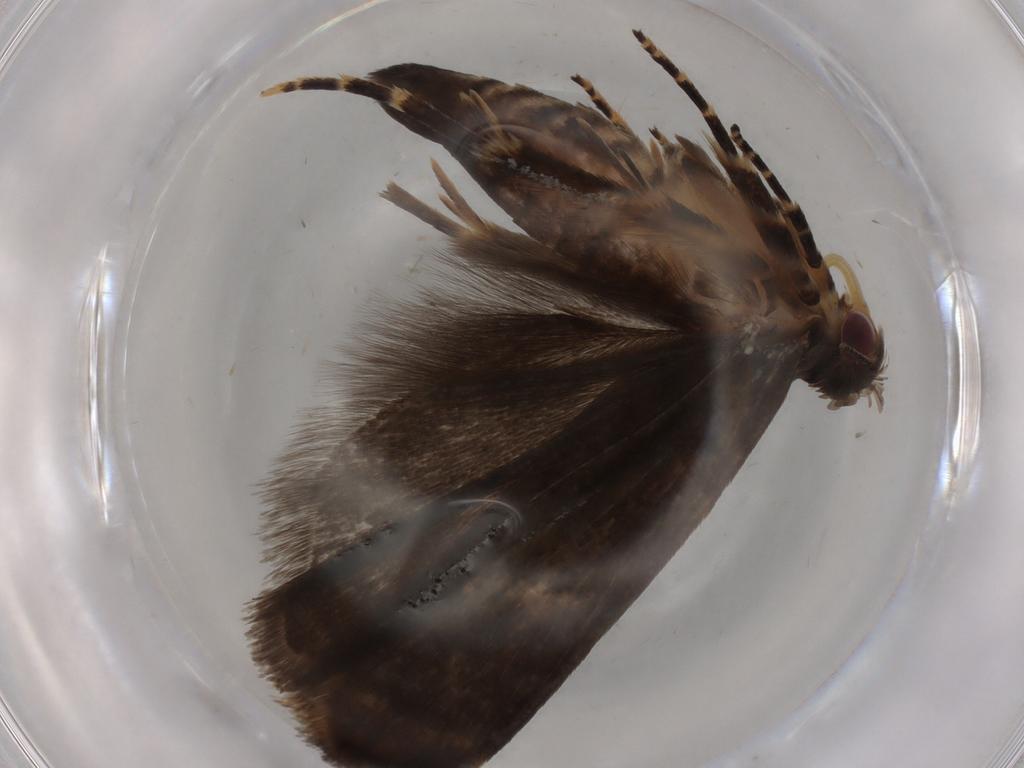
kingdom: Animalia
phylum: Arthropoda
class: Insecta
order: Lepidoptera
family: Gelechiidae
